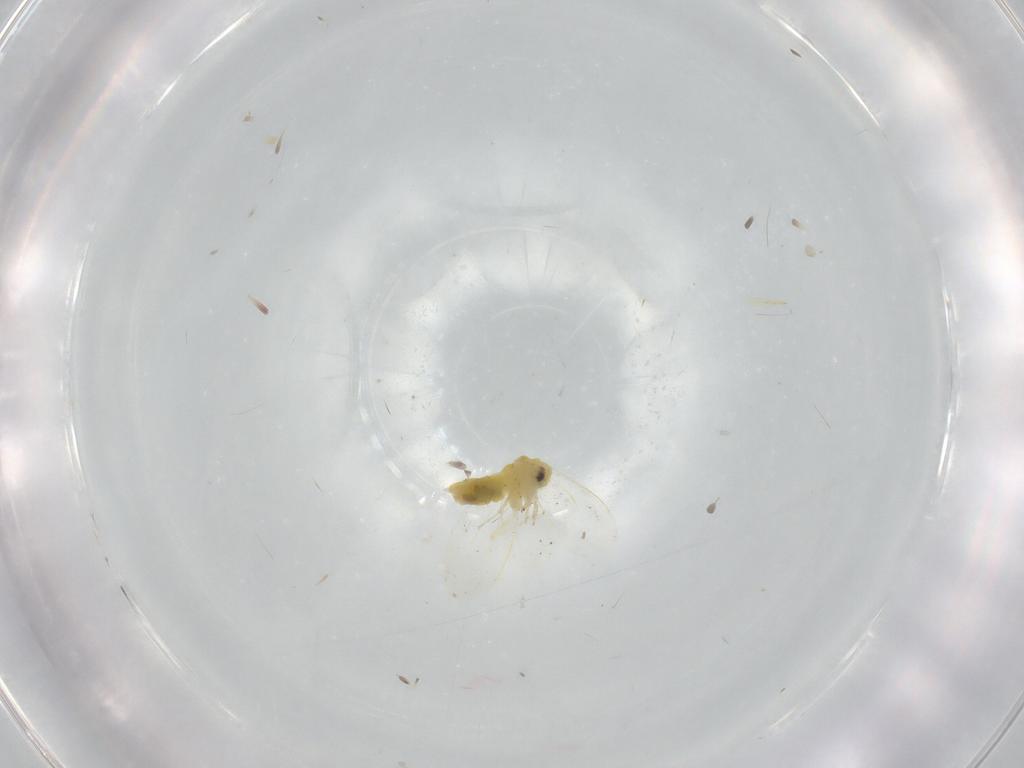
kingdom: Animalia
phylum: Arthropoda
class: Insecta
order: Hemiptera
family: Aleyrodidae
